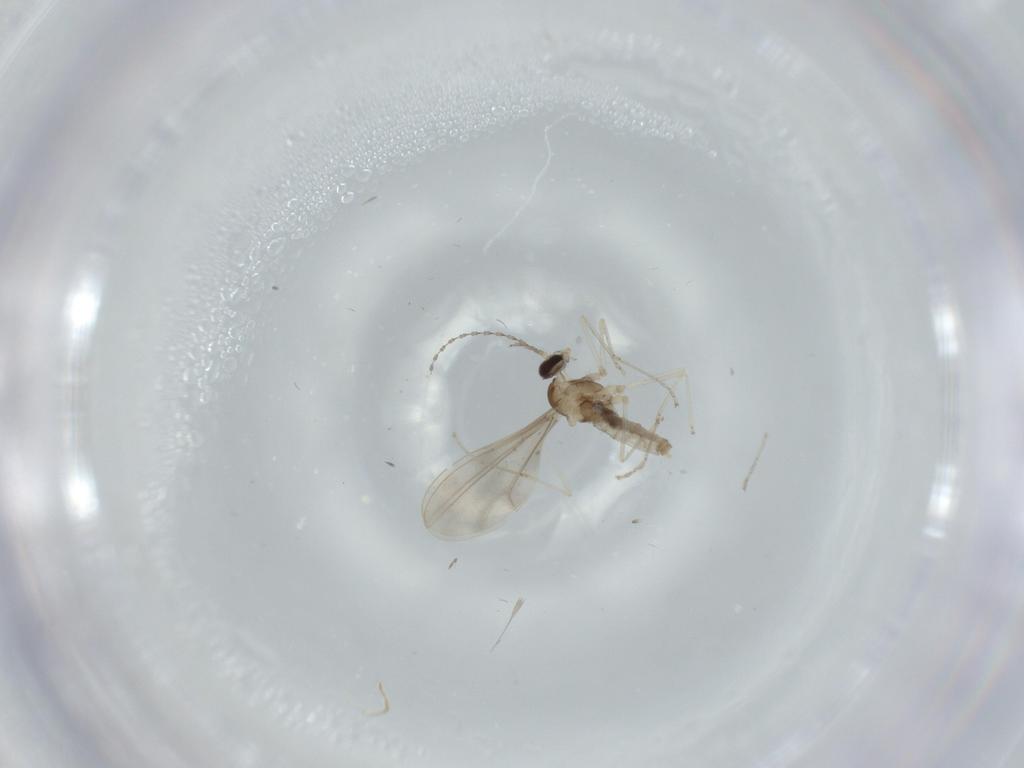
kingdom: Animalia
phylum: Arthropoda
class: Insecta
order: Diptera
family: Chironomidae
